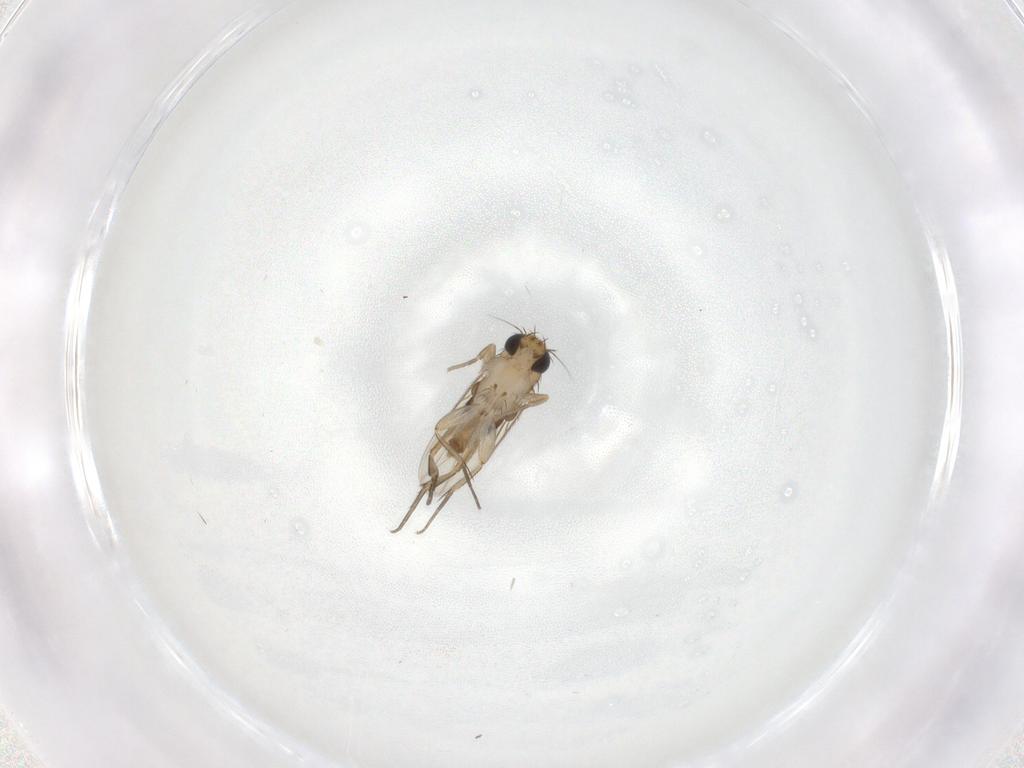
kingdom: Animalia
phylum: Arthropoda
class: Insecta
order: Diptera
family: Phoridae
